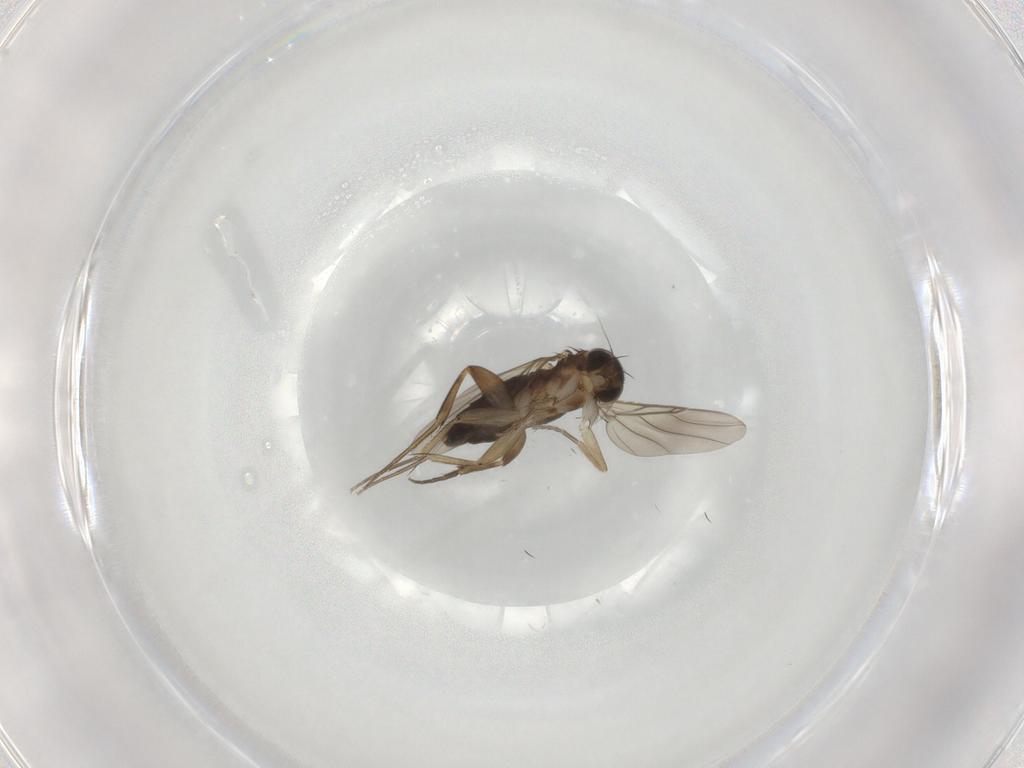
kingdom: Animalia
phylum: Arthropoda
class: Insecta
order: Diptera
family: Phoridae
